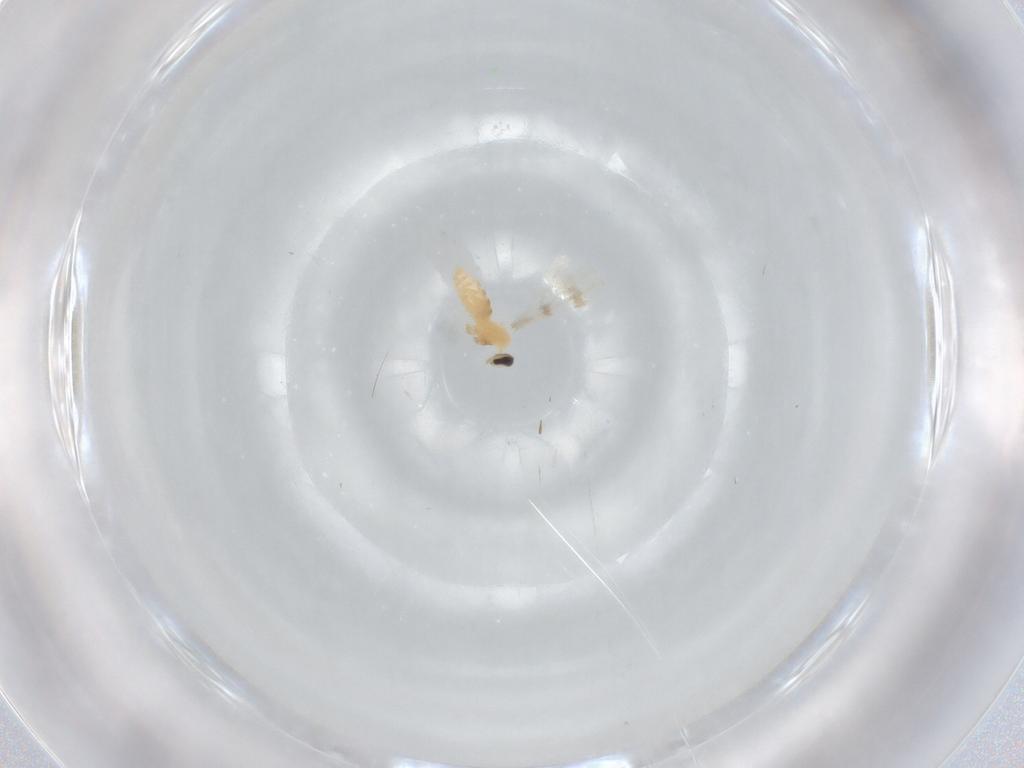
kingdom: Animalia
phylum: Arthropoda
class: Insecta
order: Diptera
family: Cecidomyiidae
